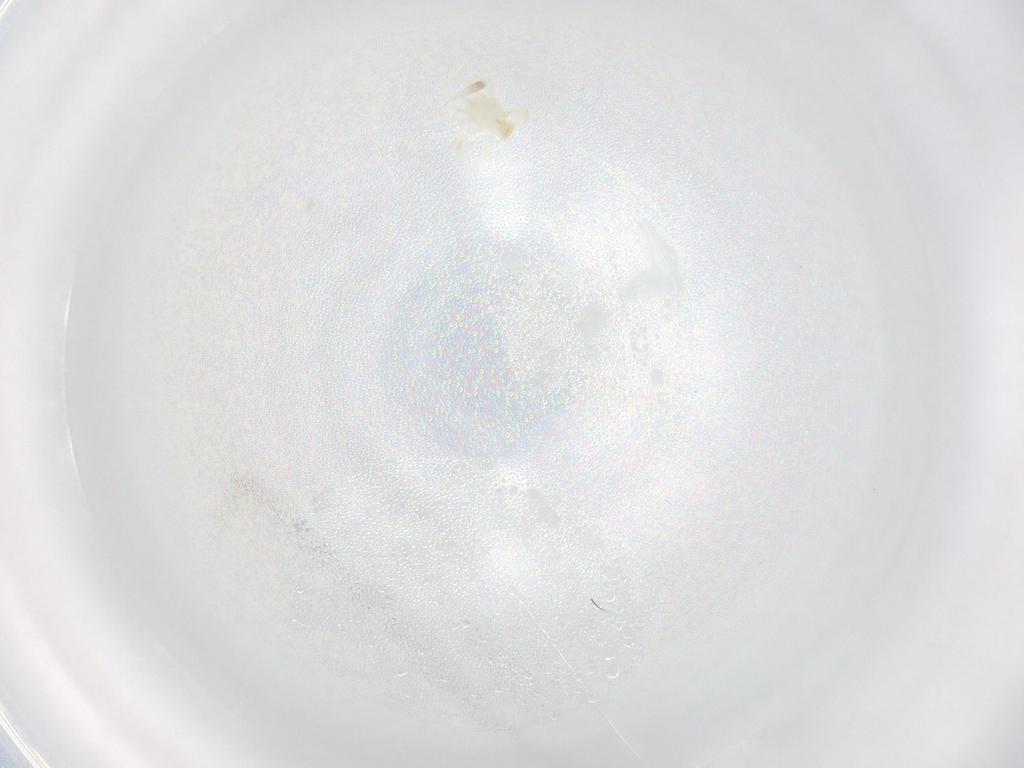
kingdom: Animalia
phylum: Arthropoda
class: Arachnida
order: Trombidiformes
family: Erythraeidae
